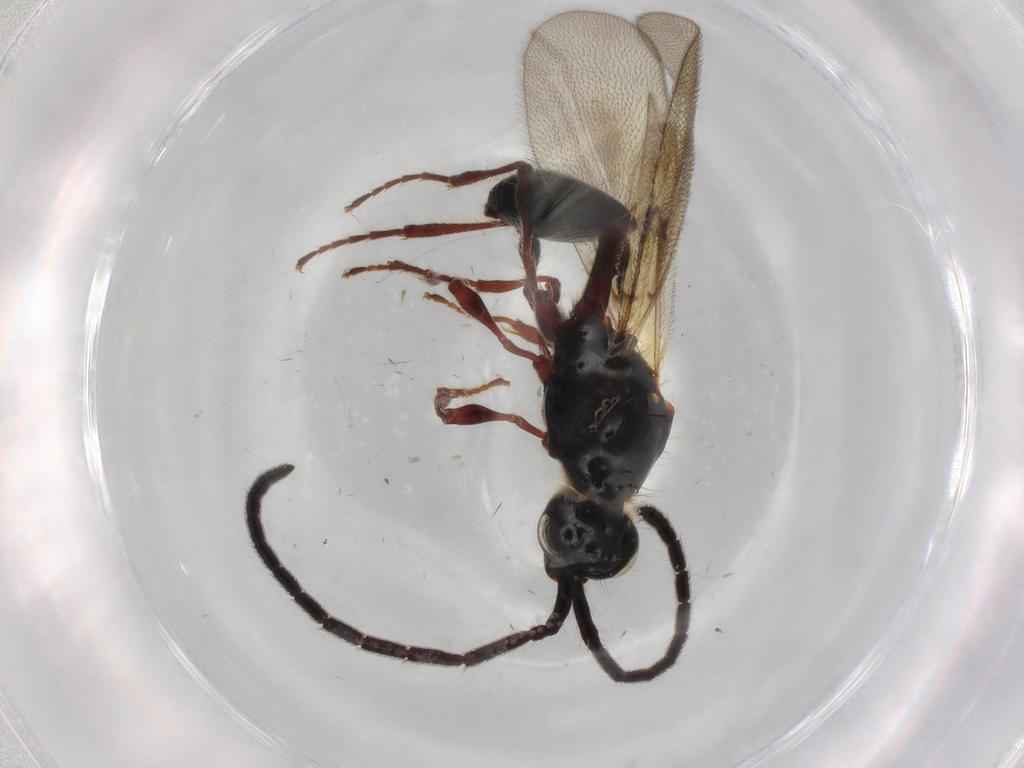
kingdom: Animalia
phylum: Arthropoda
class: Insecta
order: Hymenoptera
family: Diapriidae
